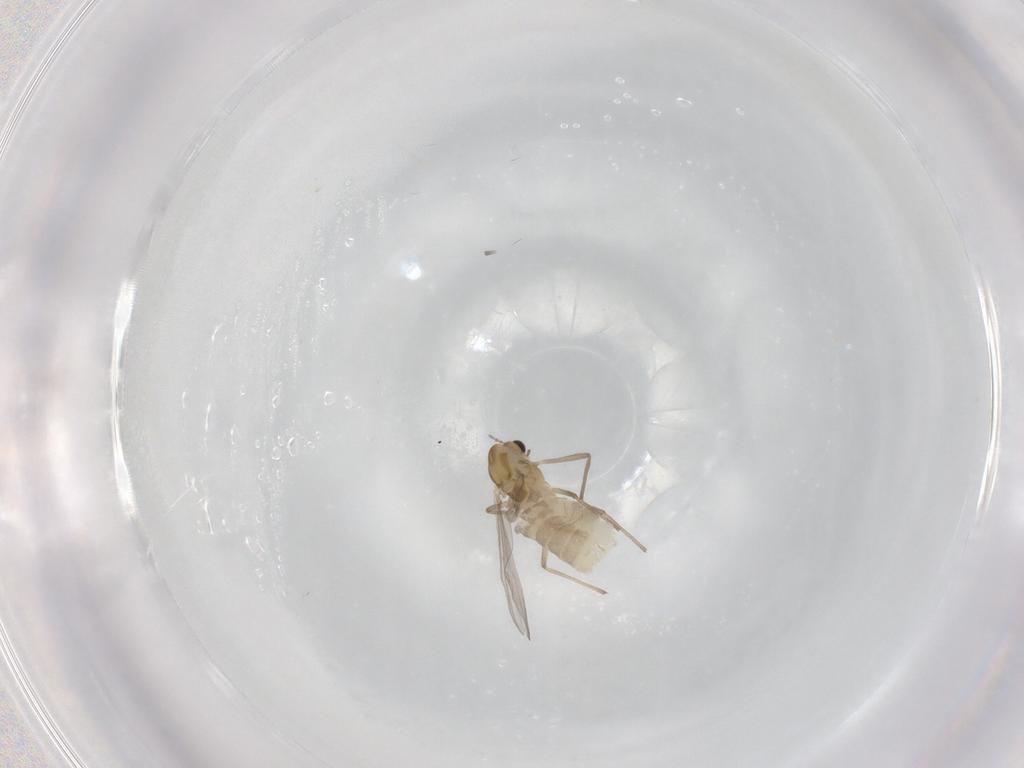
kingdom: Animalia
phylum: Arthropoda
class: Insecta
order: Diptera
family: Chironomidae
